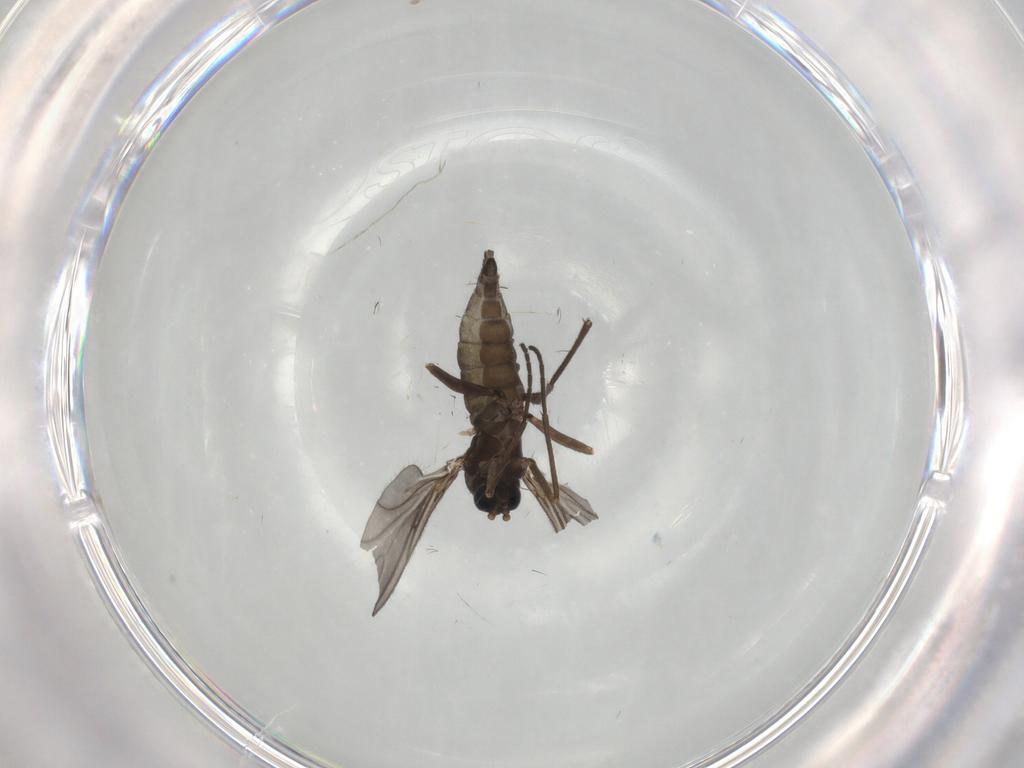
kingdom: Animalia
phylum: Arthropoda
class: Insecta
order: Diptera
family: Sciaridae
